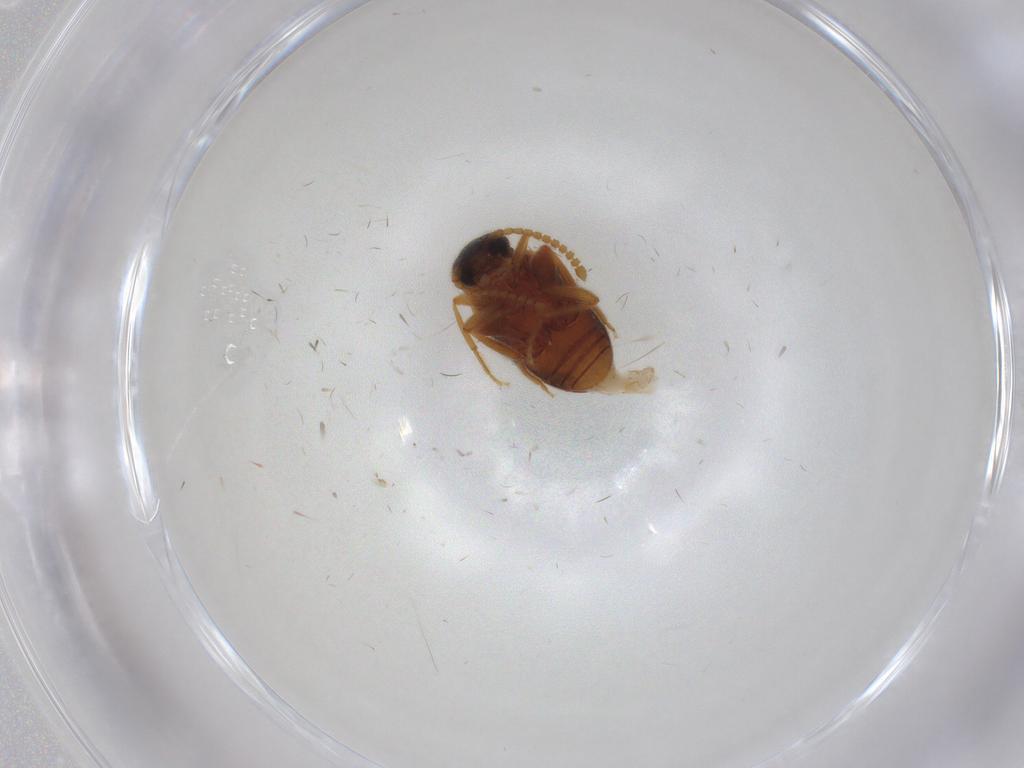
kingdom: Animalia
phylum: Arthropoda
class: Insecta
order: Coleoptera
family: Aderidae
